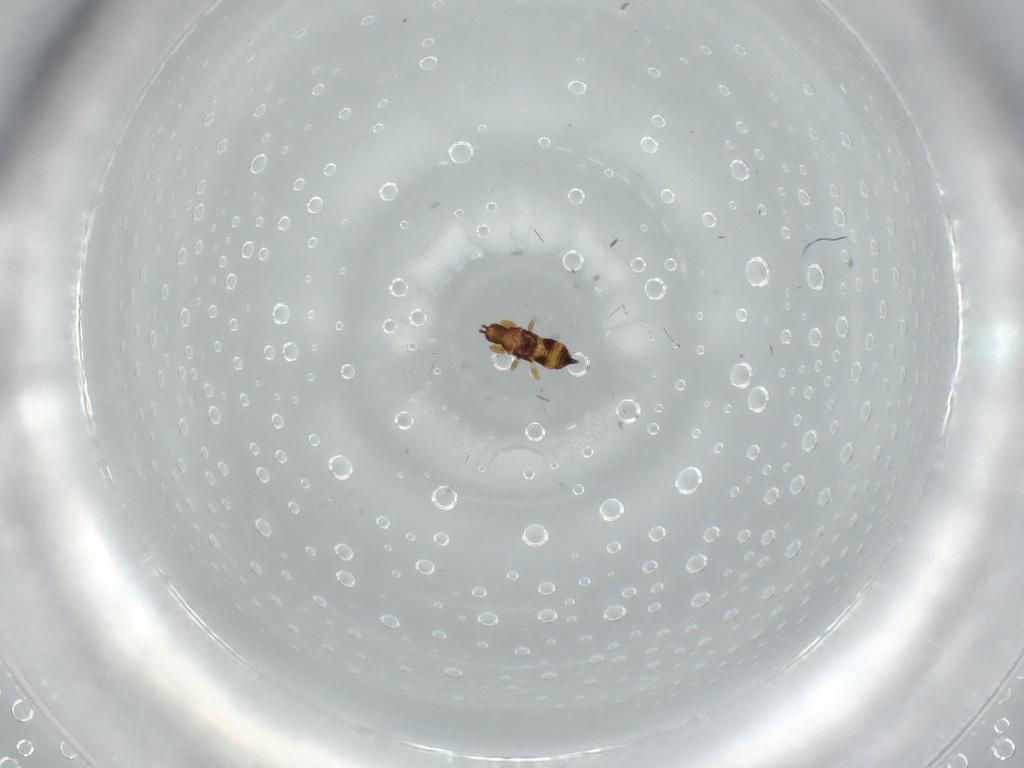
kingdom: Animalia
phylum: Arthropoda
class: Insecta
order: Thysanoptera
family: Phlaeothripidae
